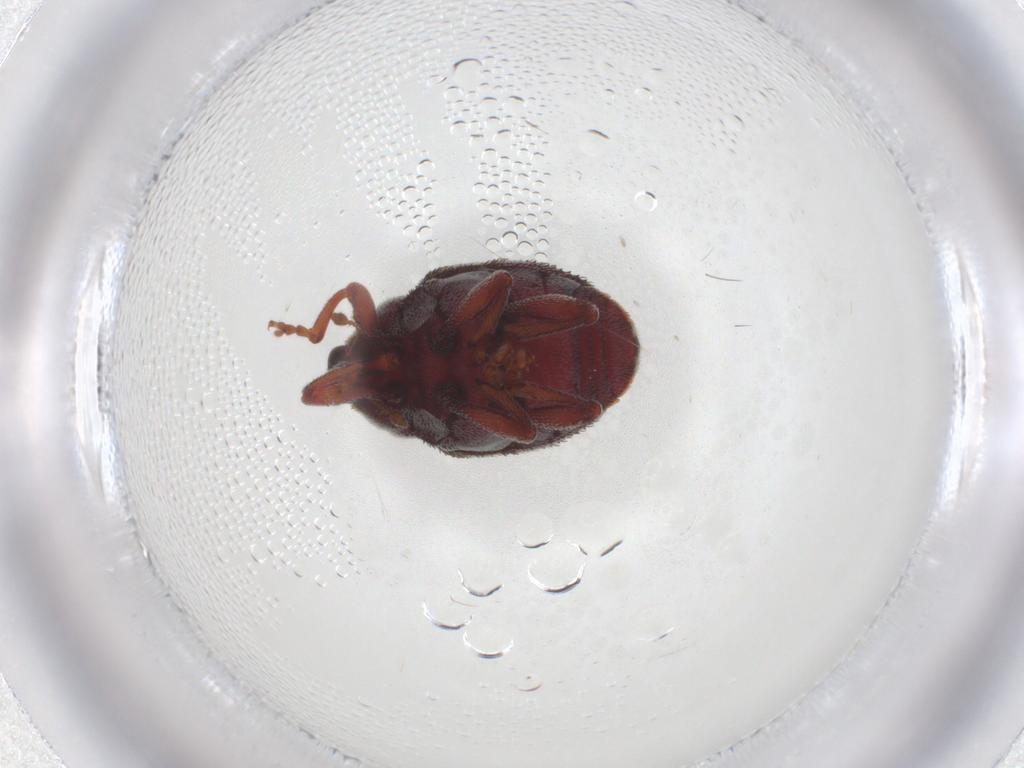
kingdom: Animalia
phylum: Arthropoda
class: Insecta
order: Coleoptera
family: Curculionidae
